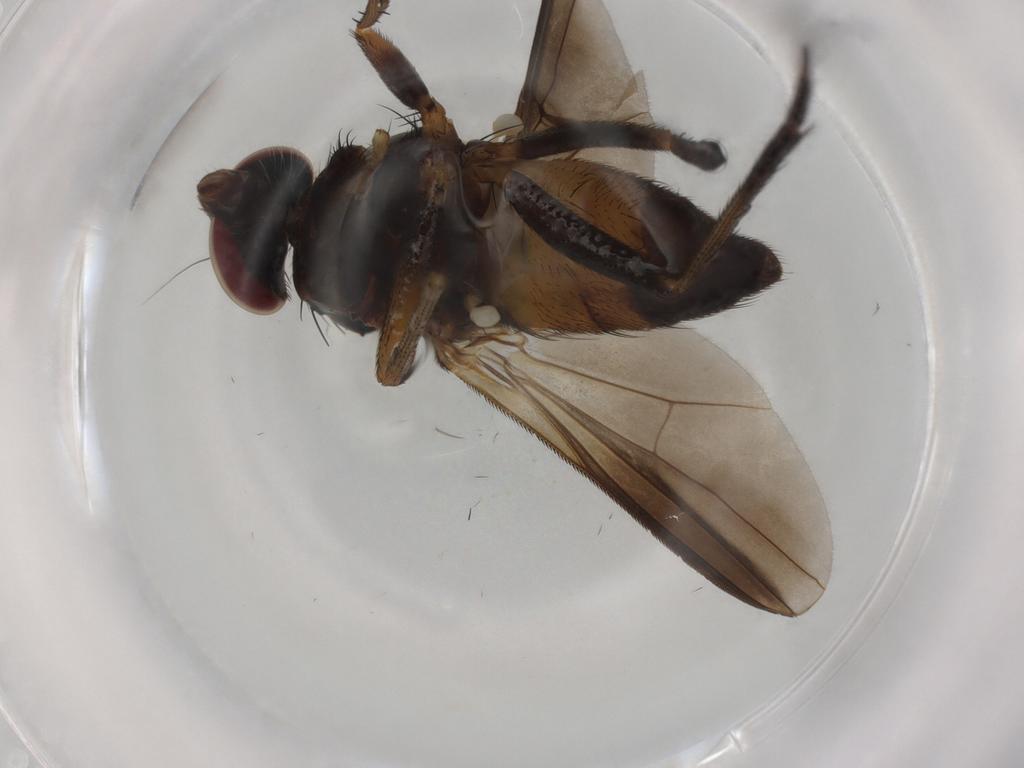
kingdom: Animalia
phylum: Arthropoda
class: Insecta
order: Diptera
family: Dolichopodidae
